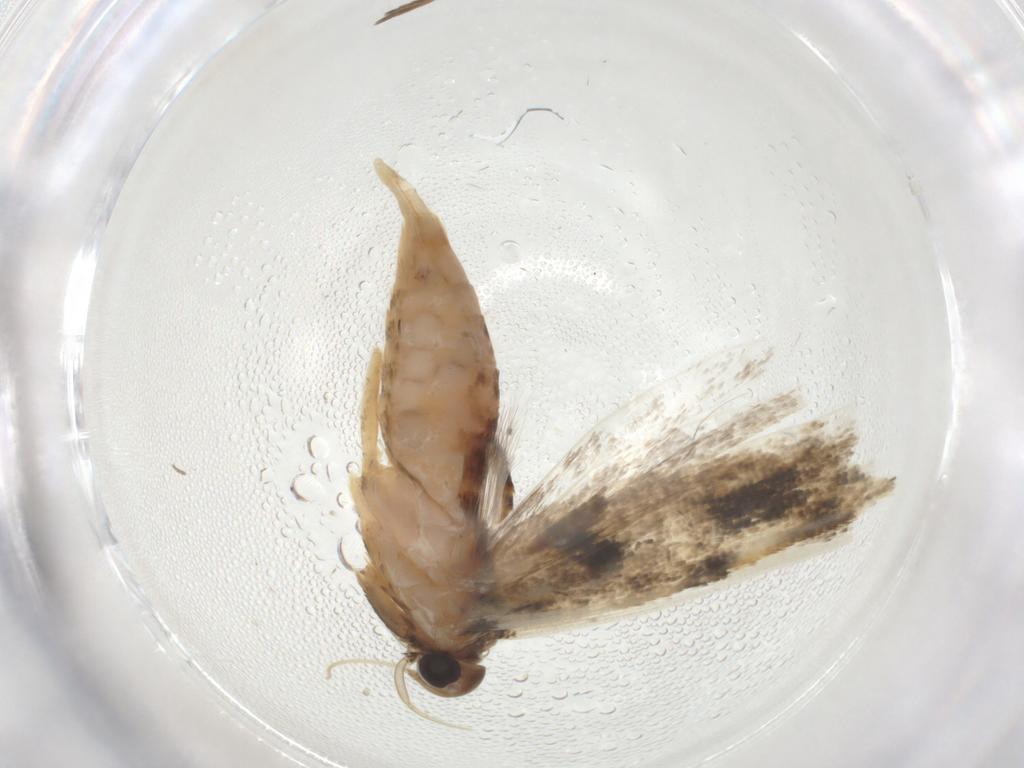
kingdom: Animalia
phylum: Arthropoda
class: Insecta
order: Lepidoptera
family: Gelechiidae
